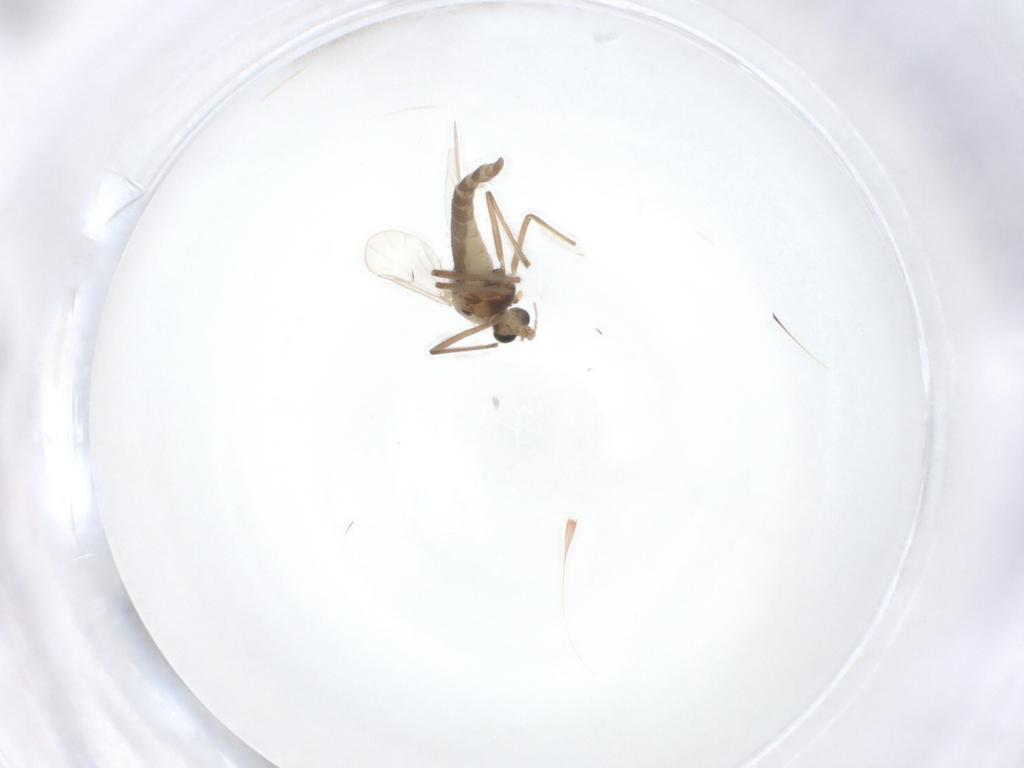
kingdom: Animalia
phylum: Arthropoda
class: Insecta
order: Diptera
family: Chironomidae
